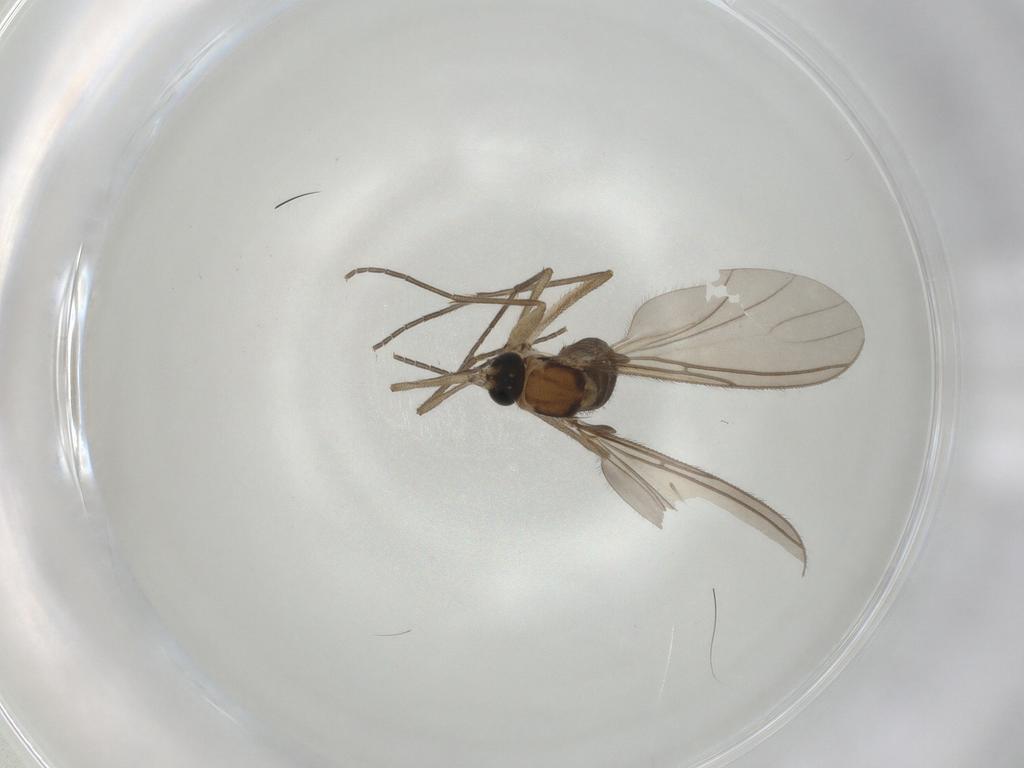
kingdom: Animalia
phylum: Arthropoda
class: Insecta
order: Diptera
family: Sciaridae
